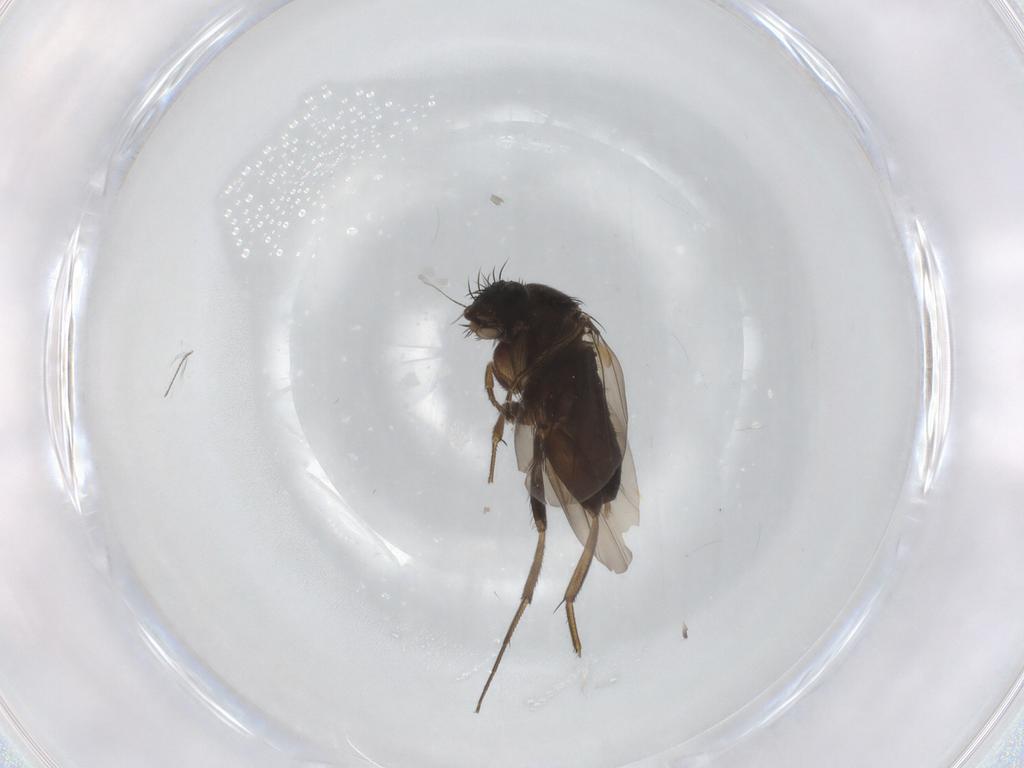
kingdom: Animalia
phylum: Arthropoda
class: Insecta
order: Diptera
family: Phoridae
